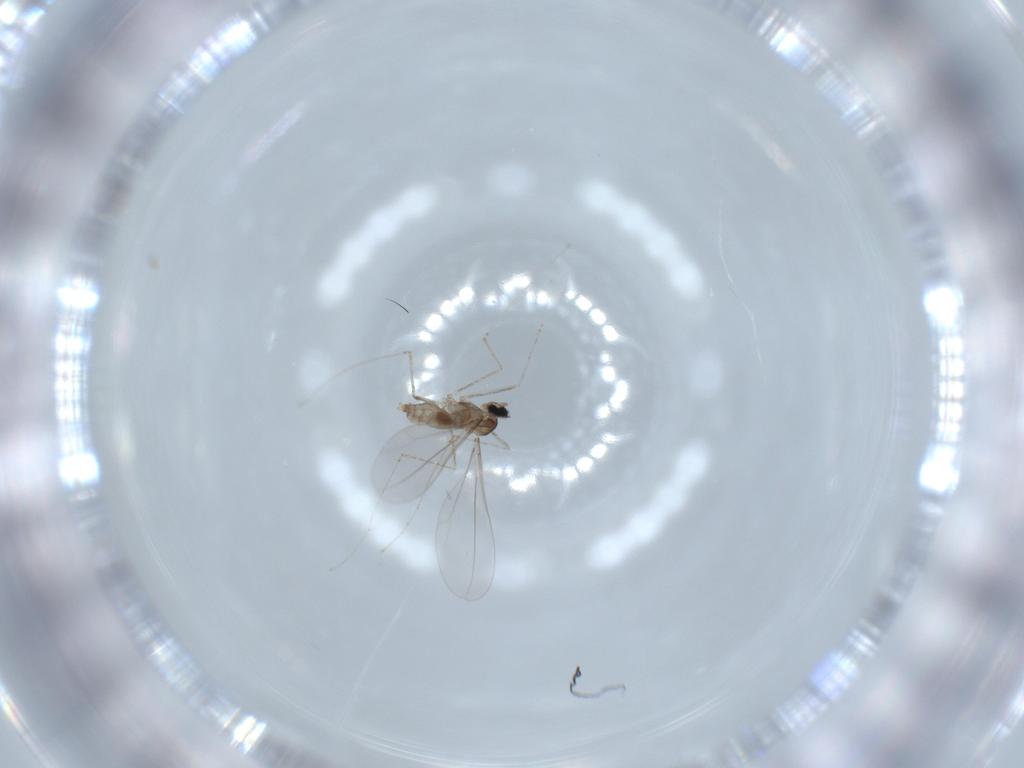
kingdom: Animalia
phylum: Arthropoda
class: Insecta
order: Diptera
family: Cecidomyiidae
